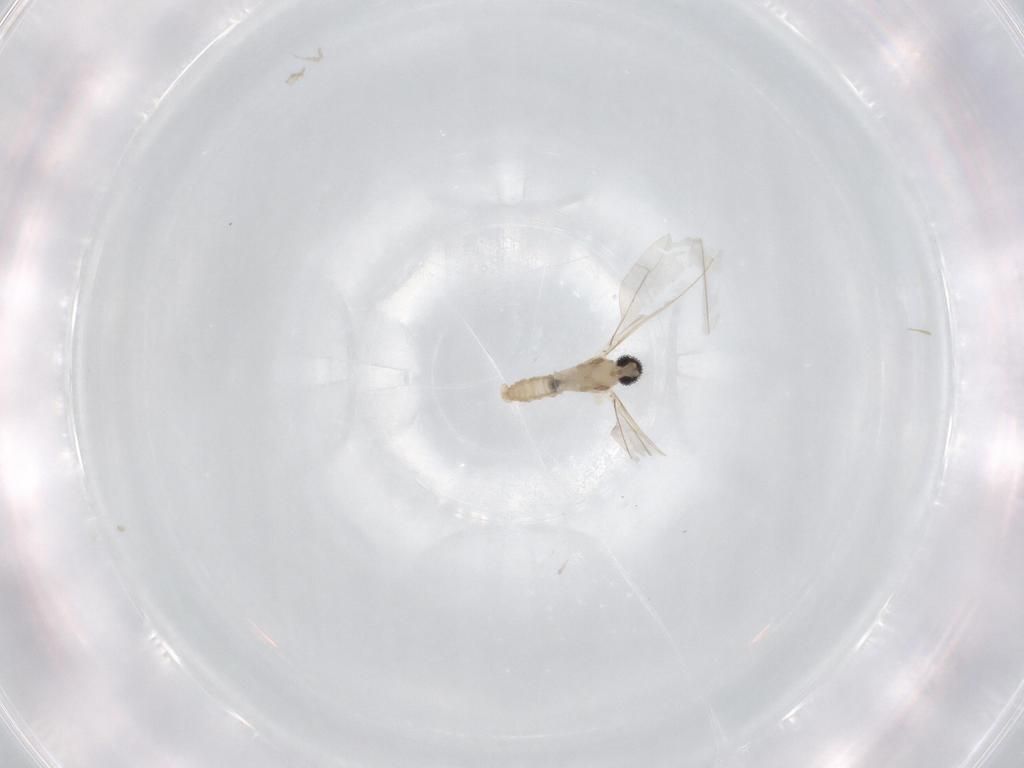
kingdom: Animalia
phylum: Arthropoda
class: Insecta
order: Diptera
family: Cecidomyiidae
